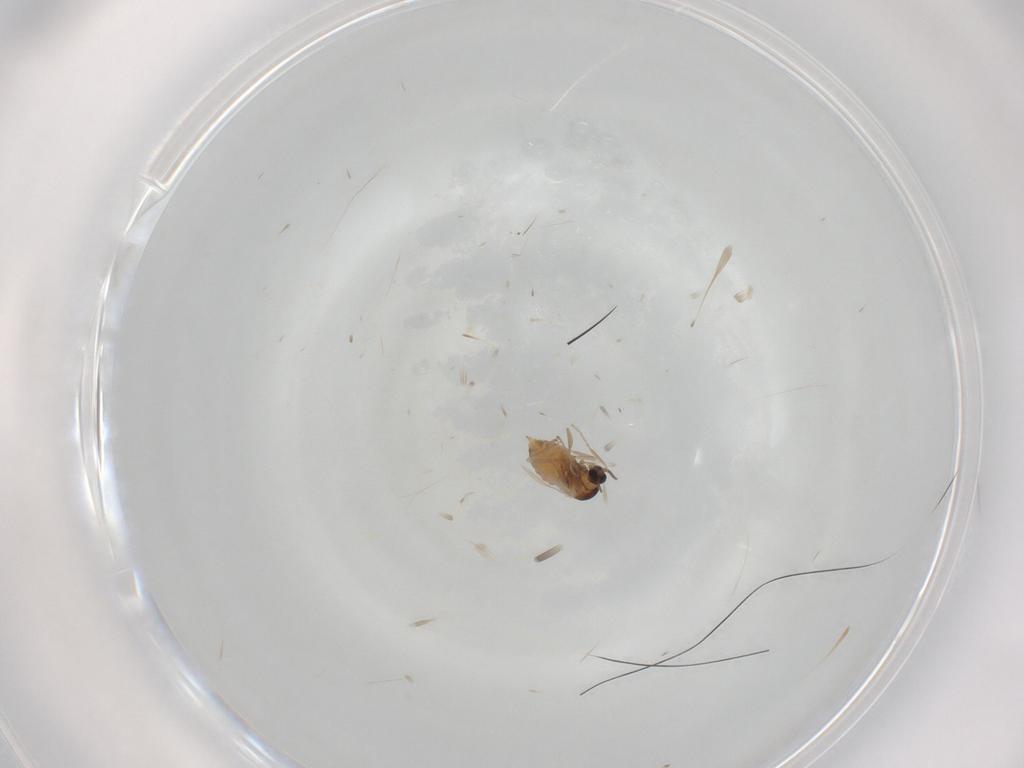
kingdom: Animalia
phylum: Arthropoda
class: Insecta
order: Diptera
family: Cecidomyiidae
